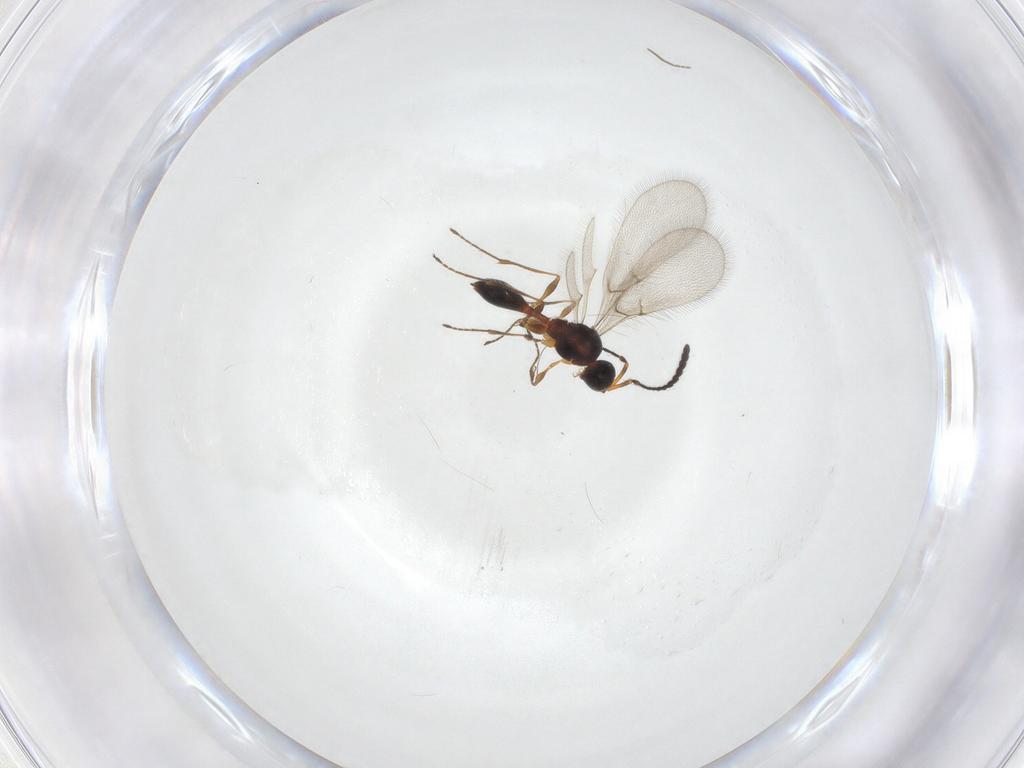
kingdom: Animalia
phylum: Arthropoda
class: Insecta
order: Hymenoptera
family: Diapriidae
